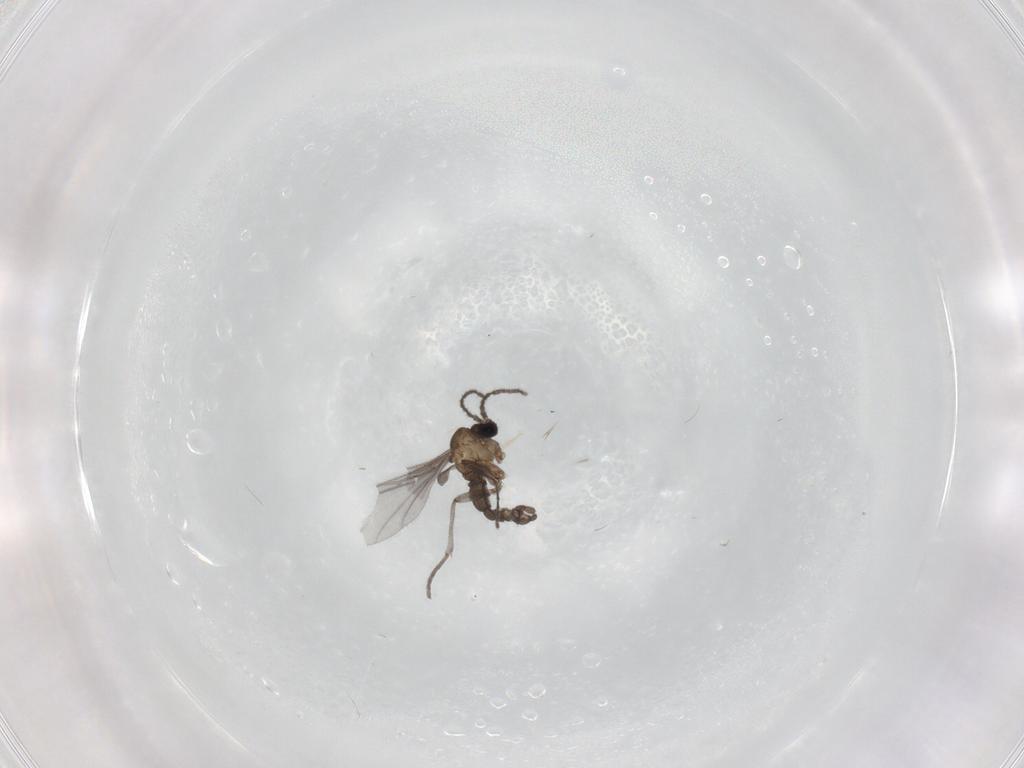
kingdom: Animalia
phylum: Arthropoda
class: Insecta
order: Diptera
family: Sciaridae
